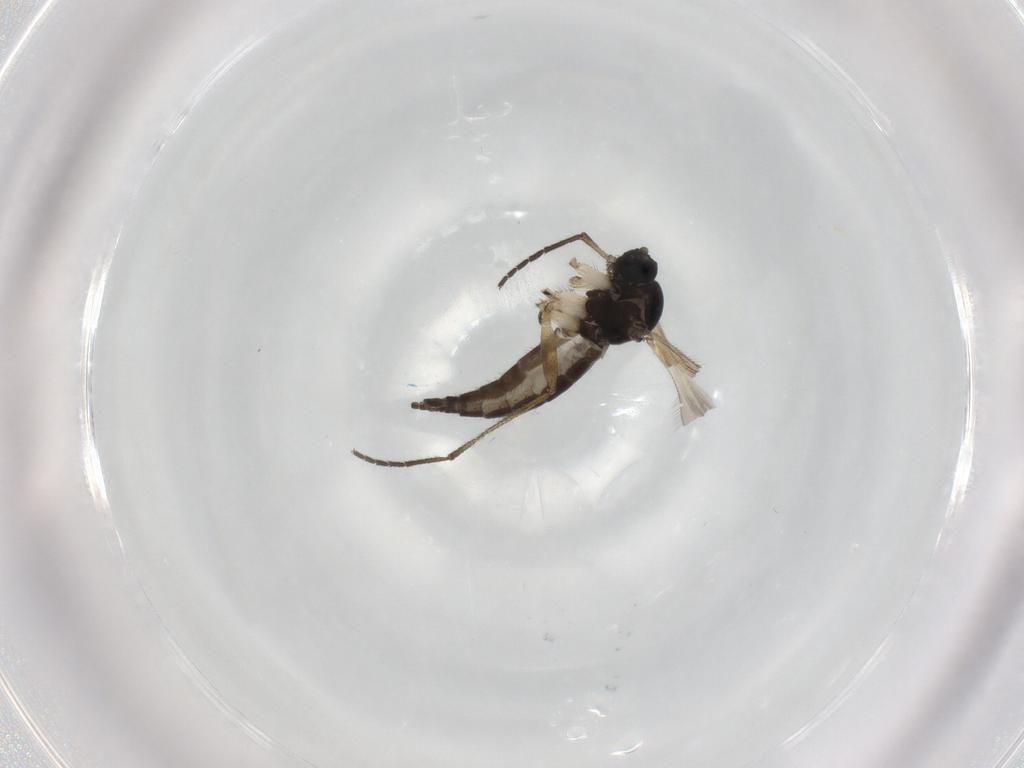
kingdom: Animalia
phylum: Arthropoda
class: Insecta
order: Diptera
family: Sciaridae
